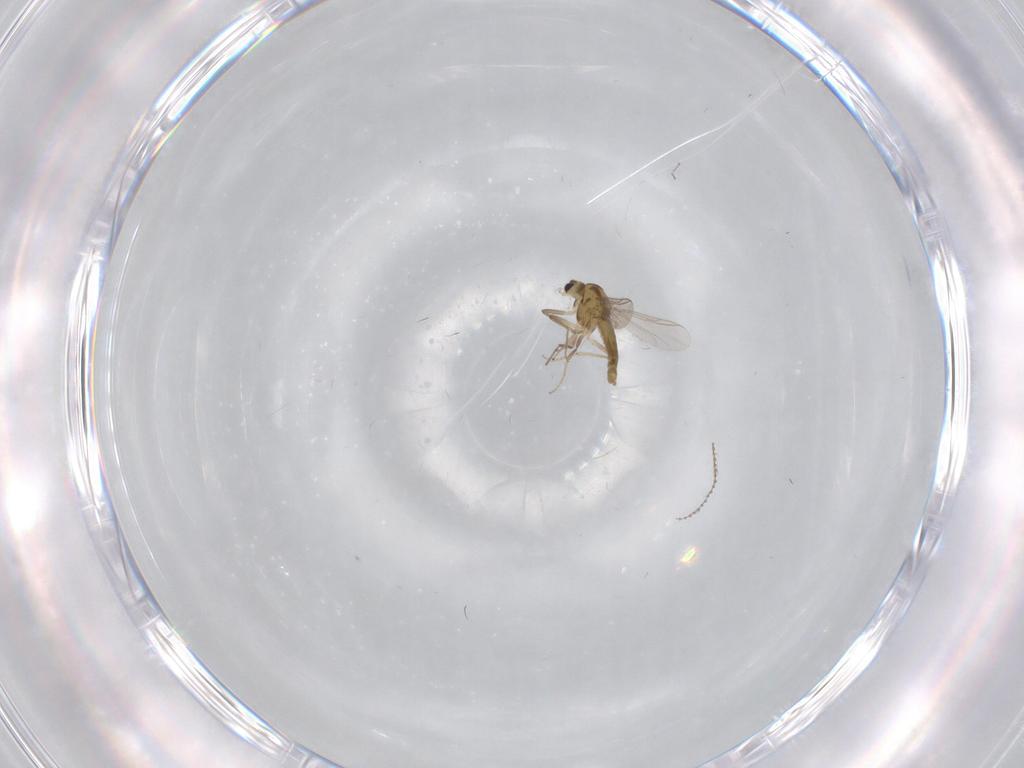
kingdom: Animalia
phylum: Arthropoda
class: Insecta
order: Diptera
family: Chironomidae
